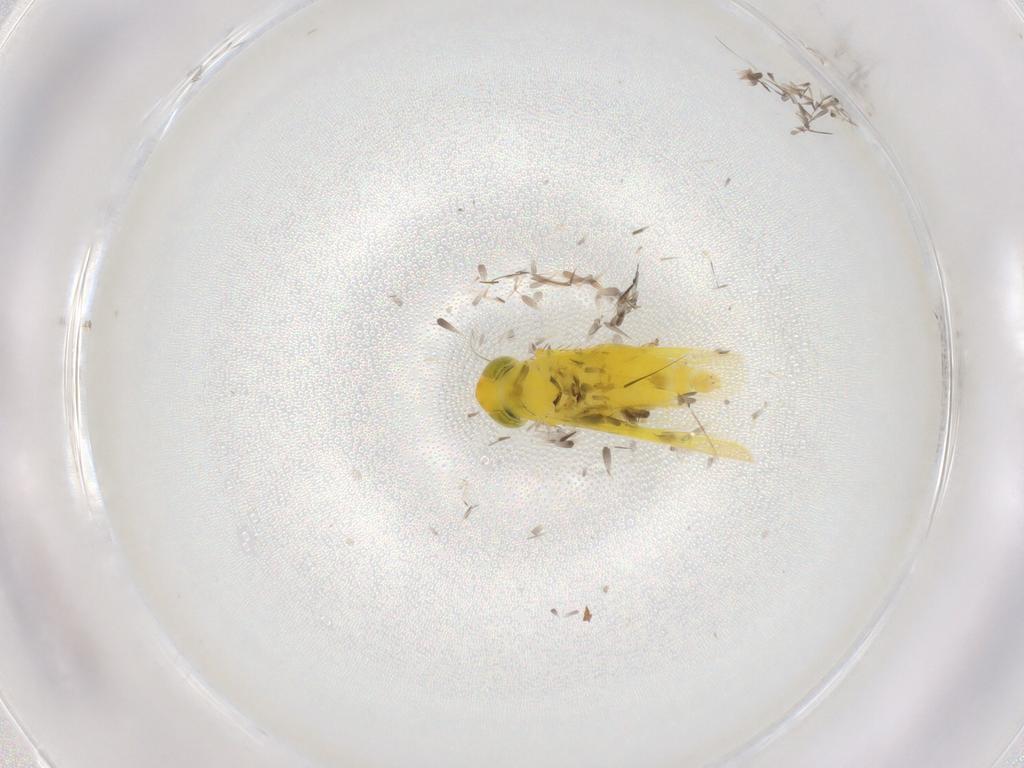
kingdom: Animalia
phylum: Arthropoda
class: Insecta
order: Hemiptera
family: Cicadellidae
